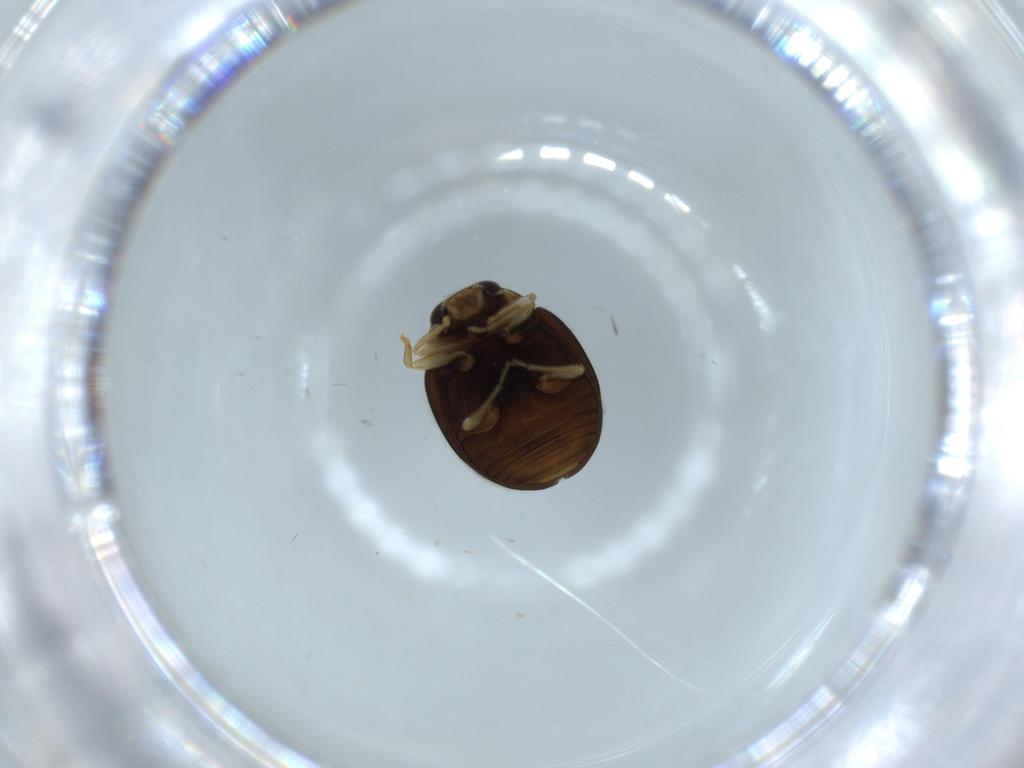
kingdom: Animalia
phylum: Arthropoda
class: Insecta
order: Coleoptera
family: Coccinellidae
